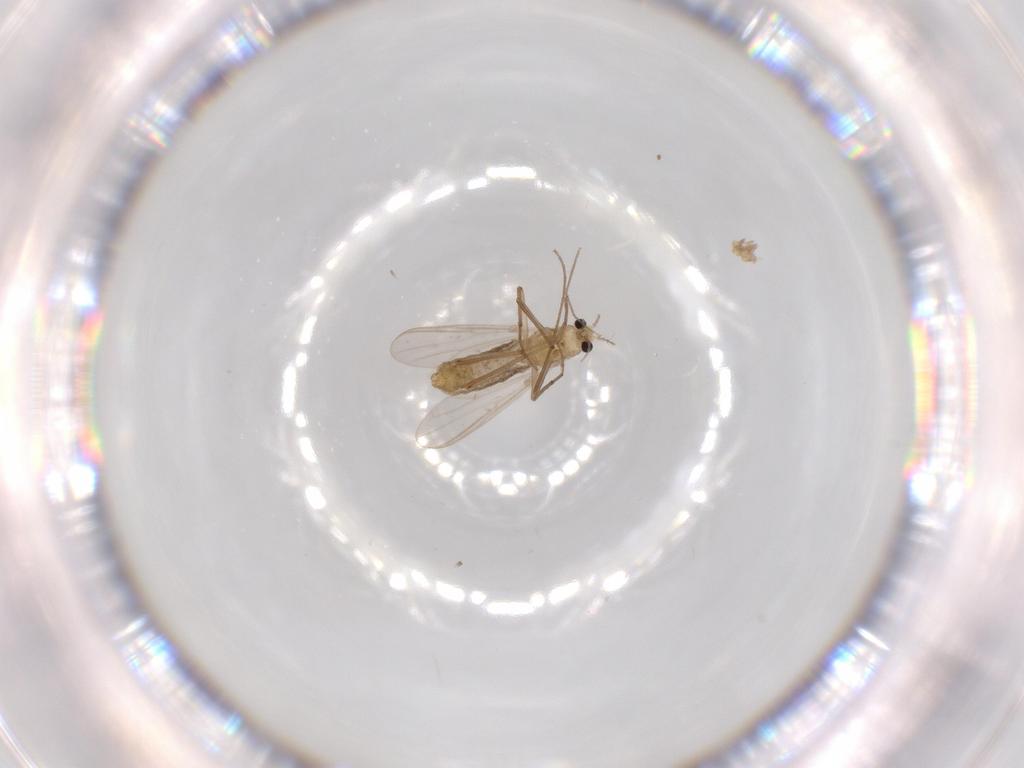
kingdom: Animalia
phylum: Arthropoda
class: Insecta
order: Diptera
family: Chironomidae
